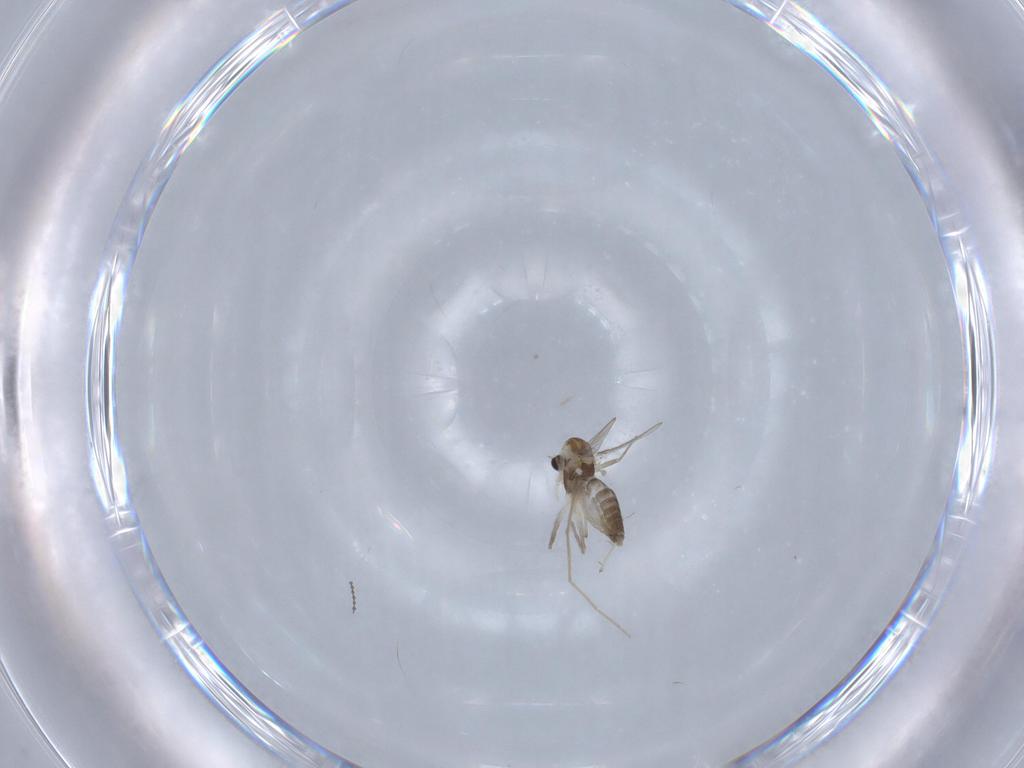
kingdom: Animalia
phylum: Arthropoda
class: Insecta
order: Diptera
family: Chironomidae
